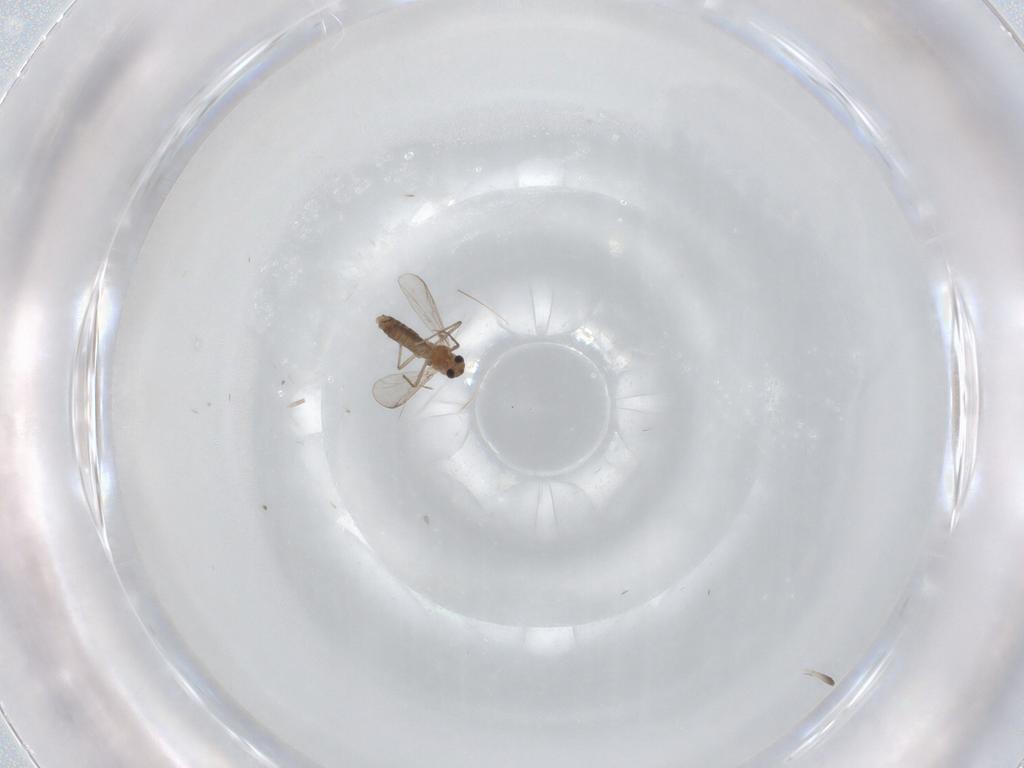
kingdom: Animalia
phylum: Arthropoda
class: Insecta
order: Diptera
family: Chironomidae
